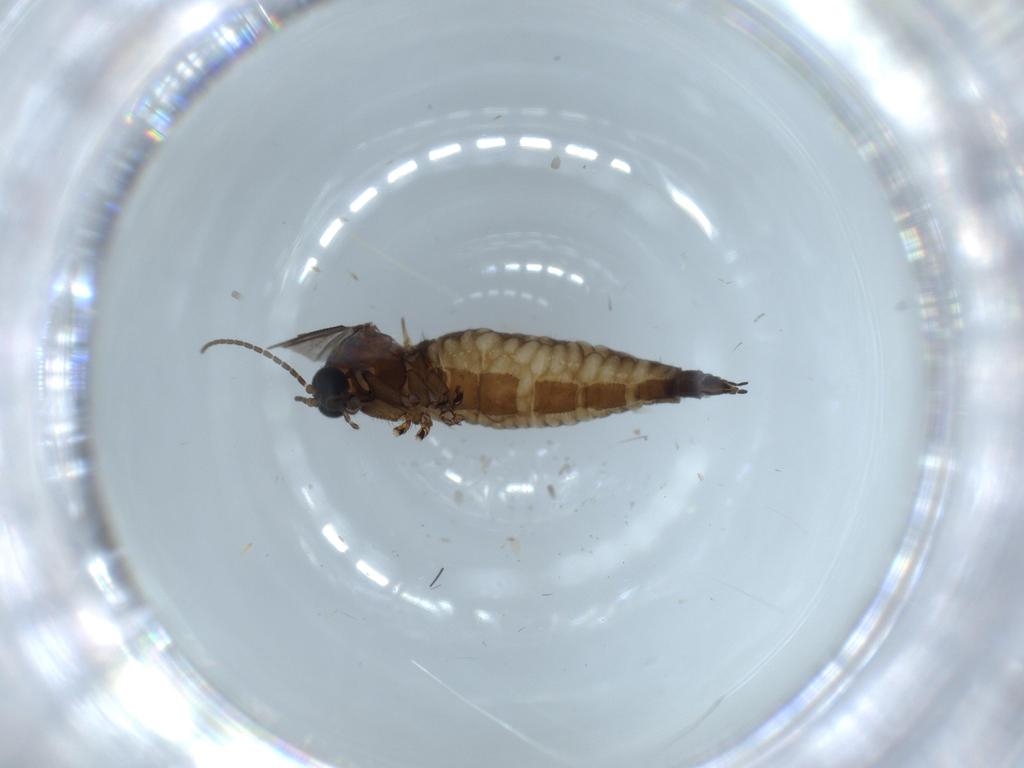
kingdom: Animalia
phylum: Arthropoda
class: Insecta
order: Diptera
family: Sciaridae
